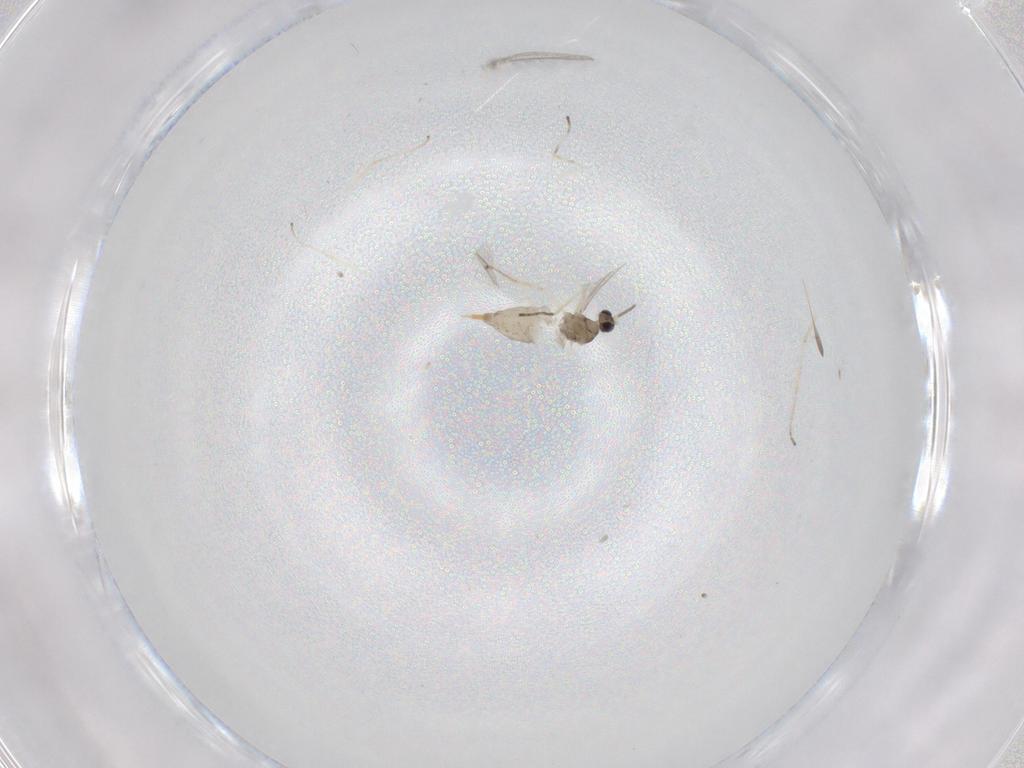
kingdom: Animalia
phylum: Arthropoda
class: Insecta
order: Diptera
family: Cecidomyiidae
